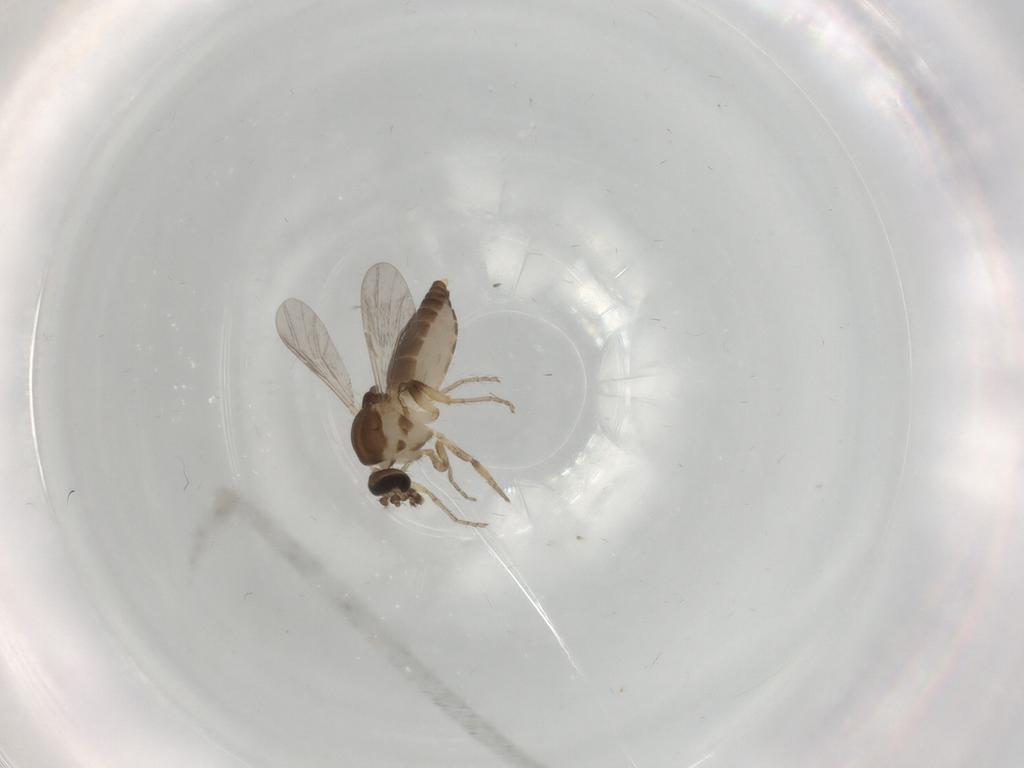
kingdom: Animalia
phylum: Arthropoda
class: Insecta
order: Diptera
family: Ceratopogonidae
